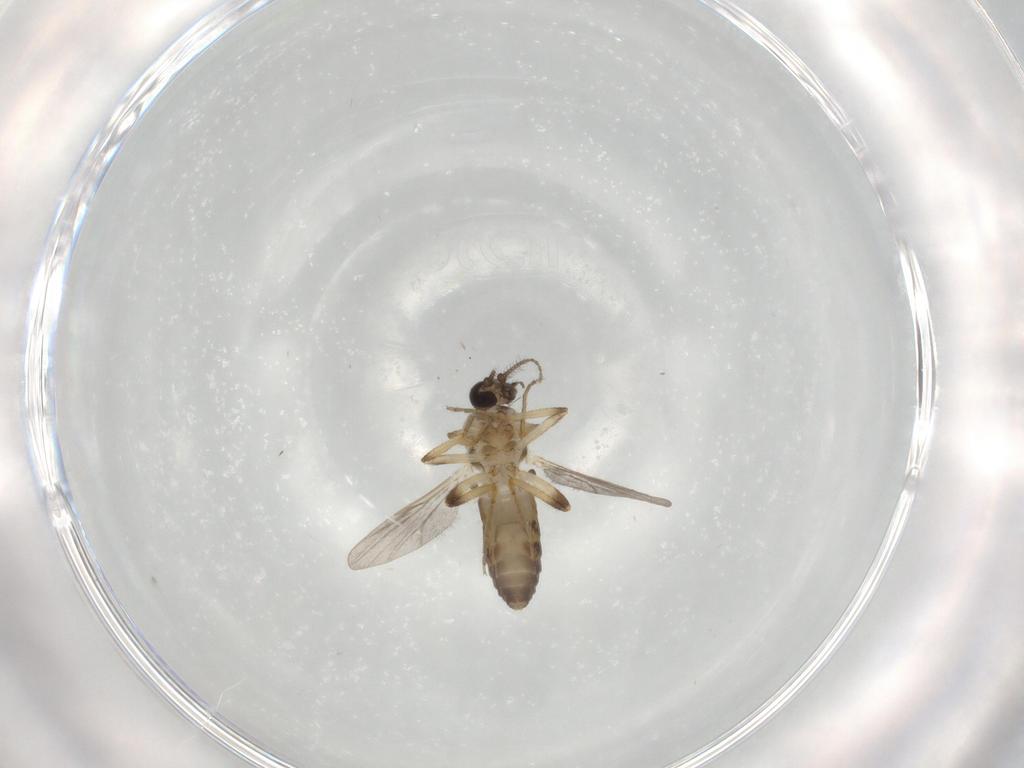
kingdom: Animalia
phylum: Arthropoda
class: Insecta
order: Diptera
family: Ceratopogonidae
